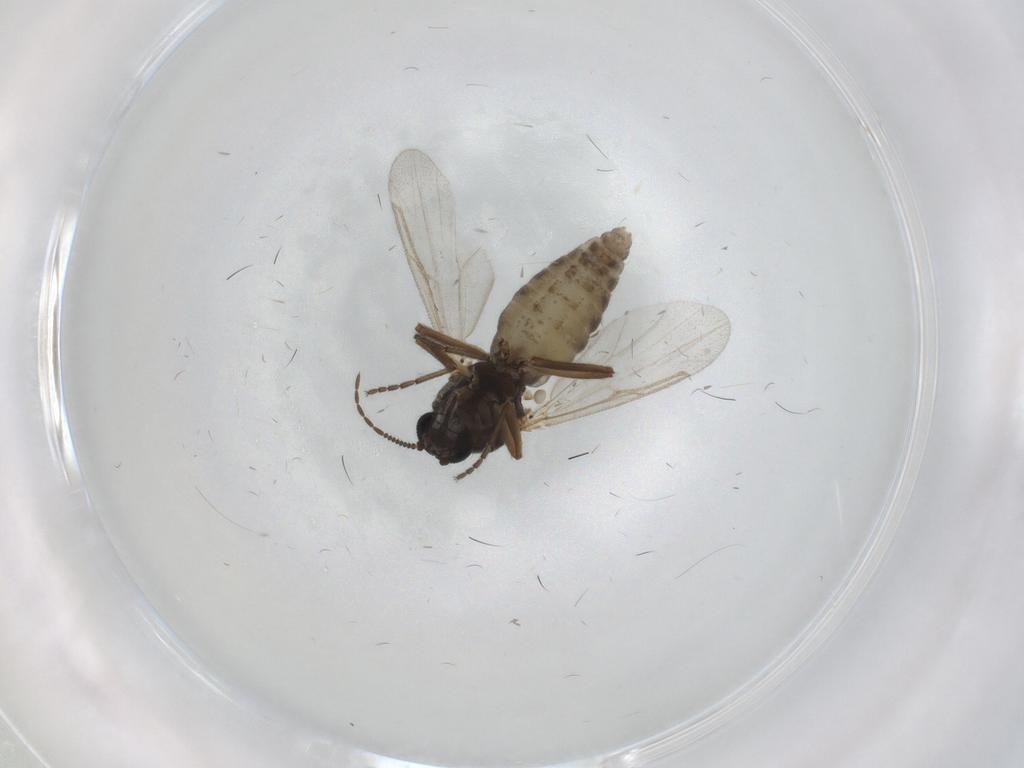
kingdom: Animalia
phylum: Arthropoda
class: Insecta
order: Diptera
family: Ceratopogonidae
